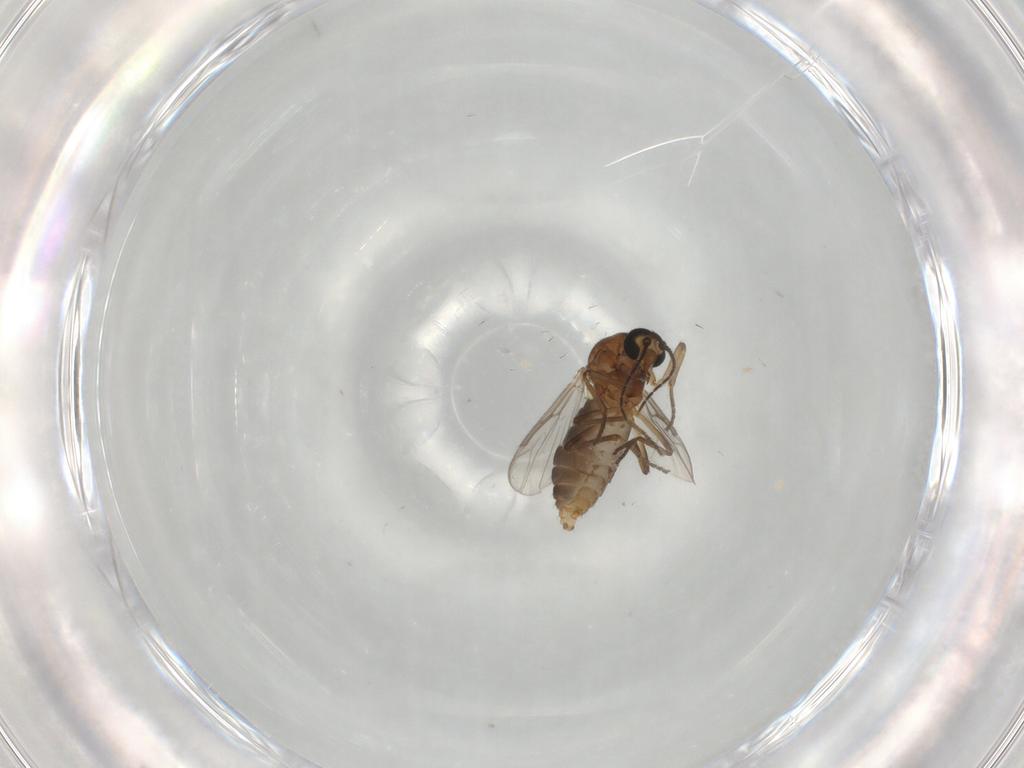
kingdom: Animalia
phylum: Arthropoda
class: Insecta
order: Diptera
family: Ceratopogonidae
